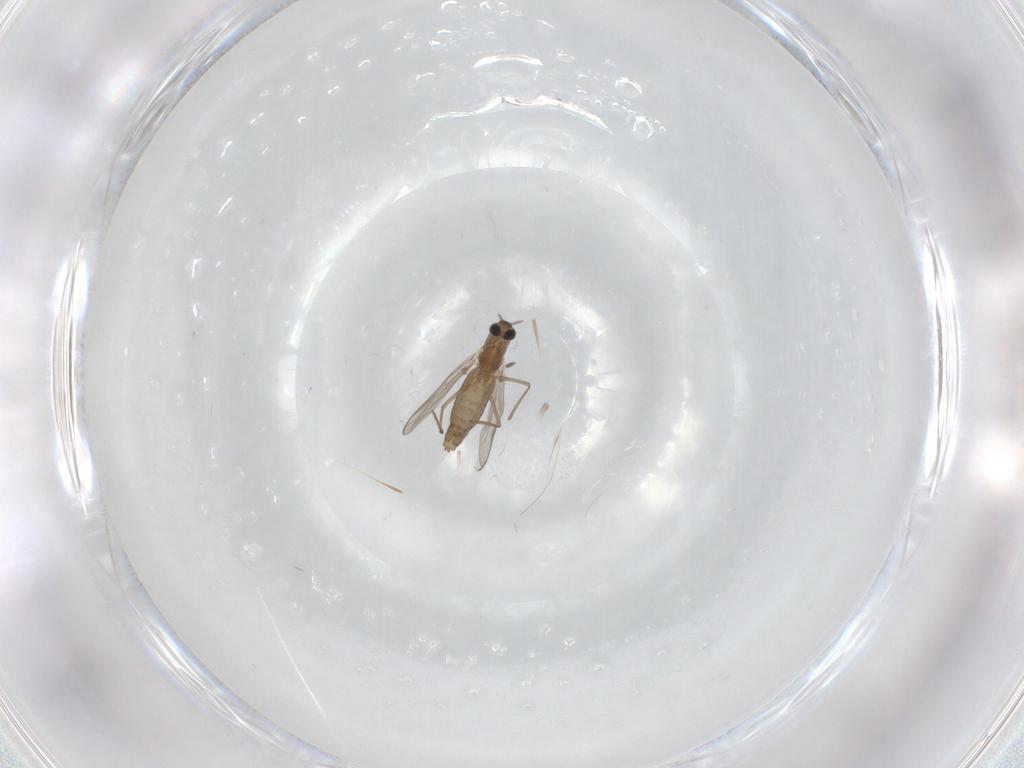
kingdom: Animalia
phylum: Arthropoda
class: Insecta
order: Diptera
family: Chironomidae
